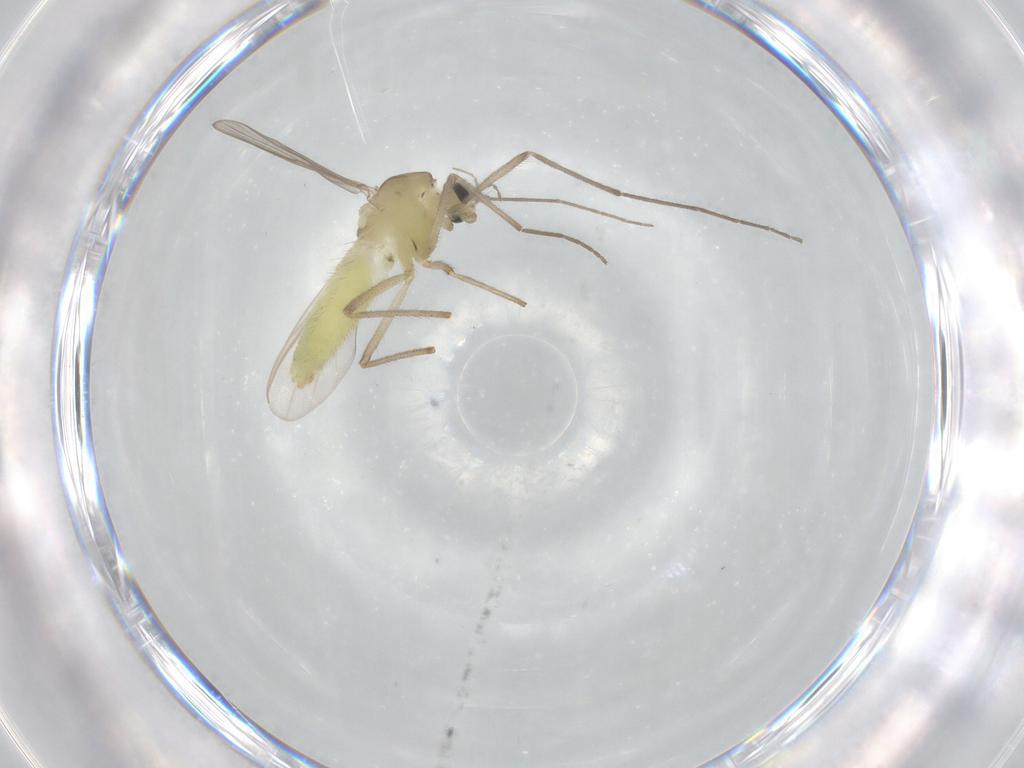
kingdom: Animalia
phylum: Arthropoda
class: Insecta
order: Diptera
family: Chironomidae
